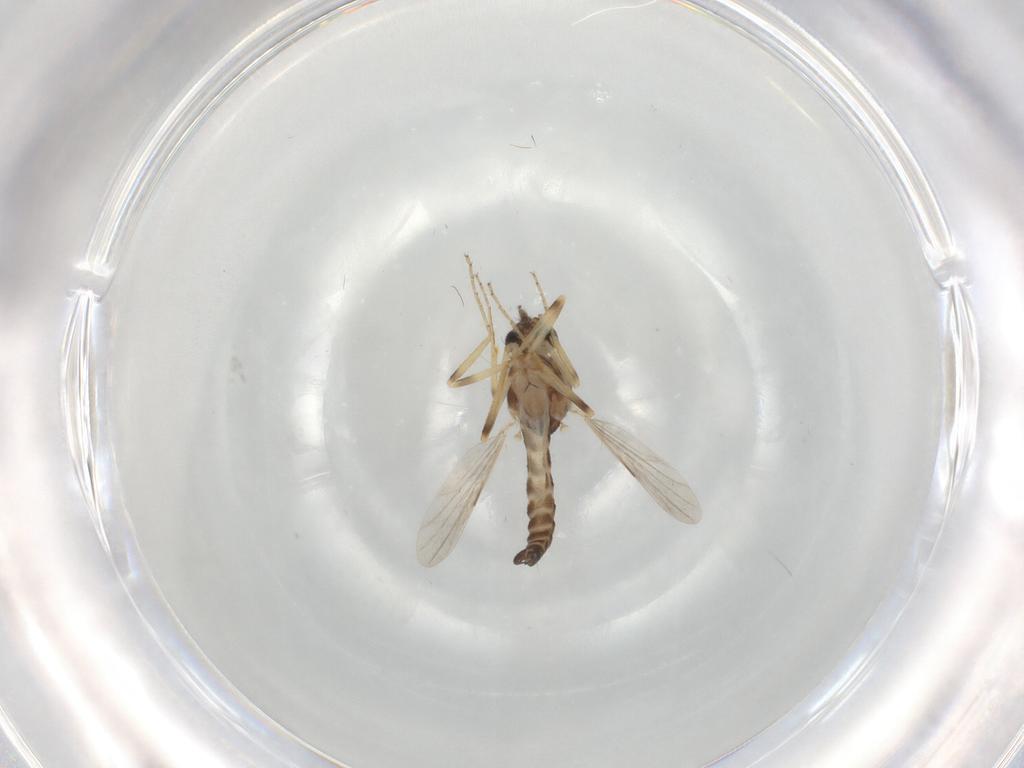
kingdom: Animalia
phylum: Arthropoda
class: Insecta
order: Diptera
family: Ceratopogonidae
